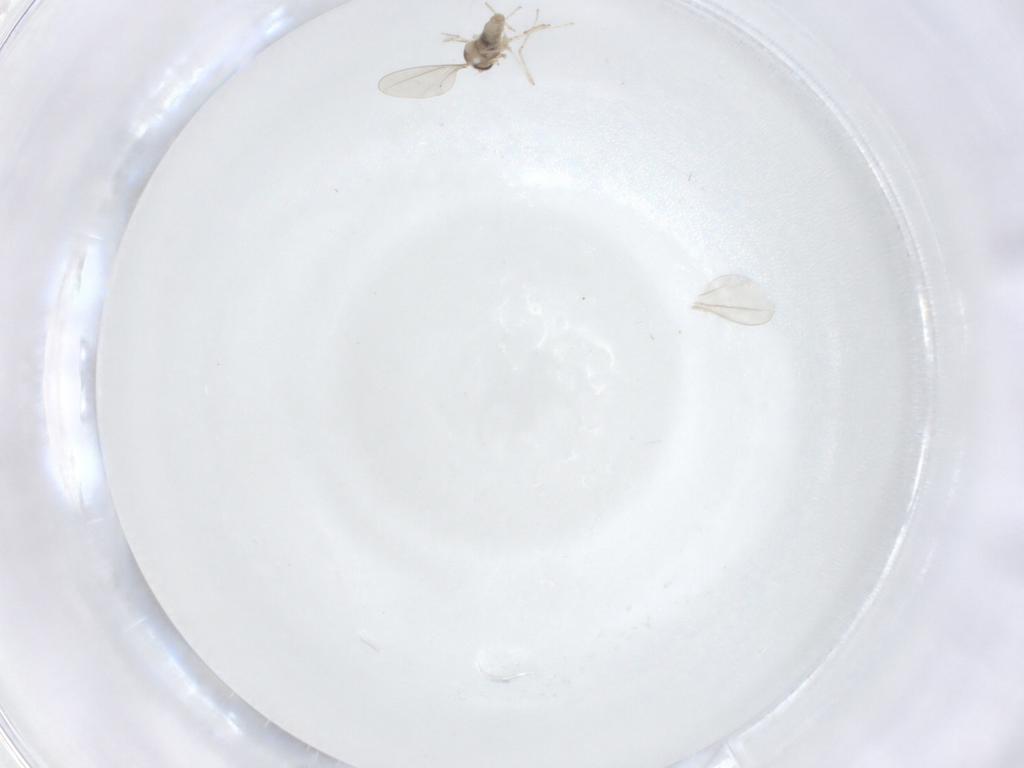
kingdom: Animalia
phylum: Arthropoda
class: Insecta
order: Diptera
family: Cecidomyiidae
